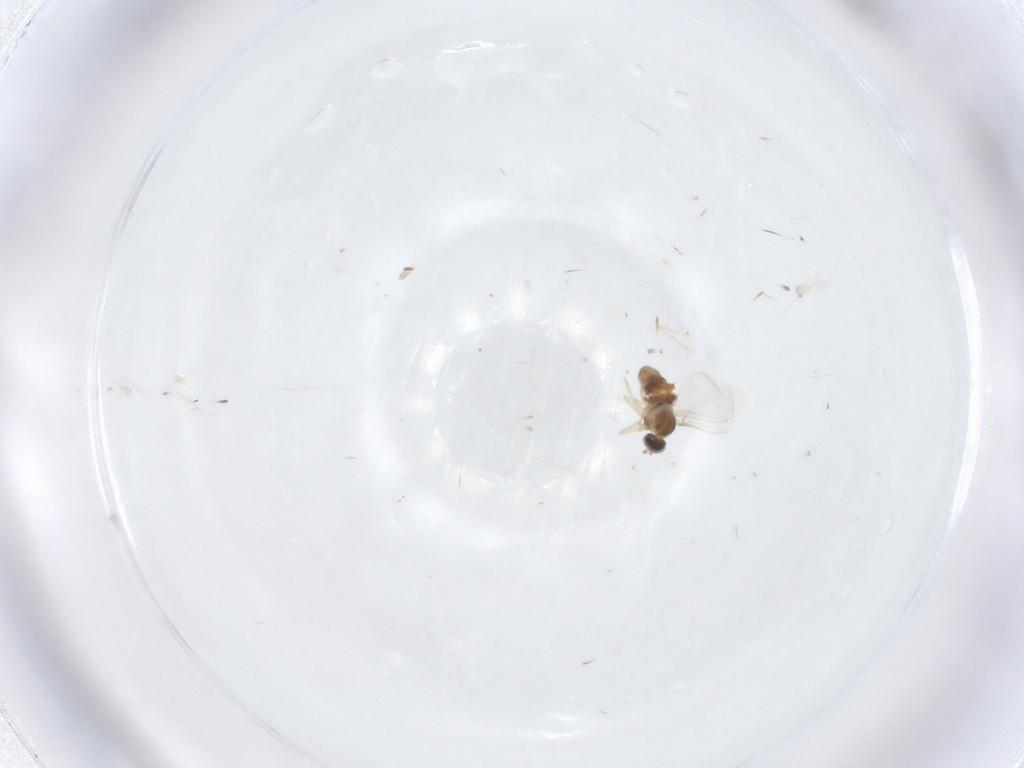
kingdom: Animalia
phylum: Arthropoda
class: Insecta
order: Diptera
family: Cecidomyiidae
